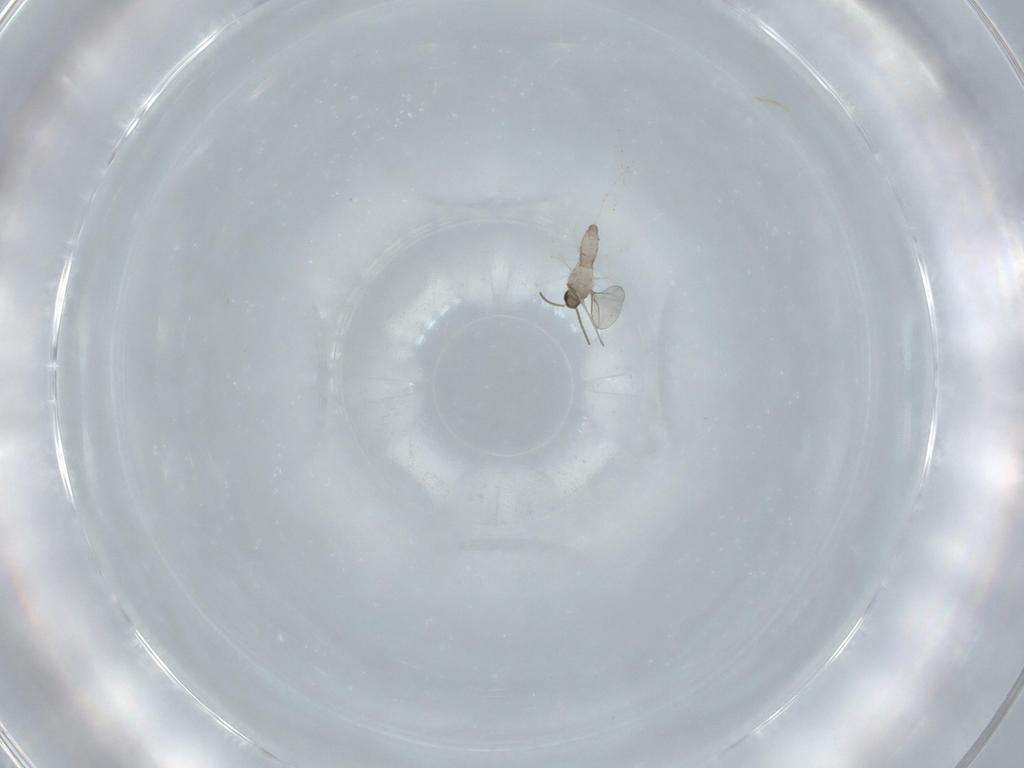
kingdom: Animalia
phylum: Arthropoda
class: Insecta
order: Diptera
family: Cecidomyiidae
